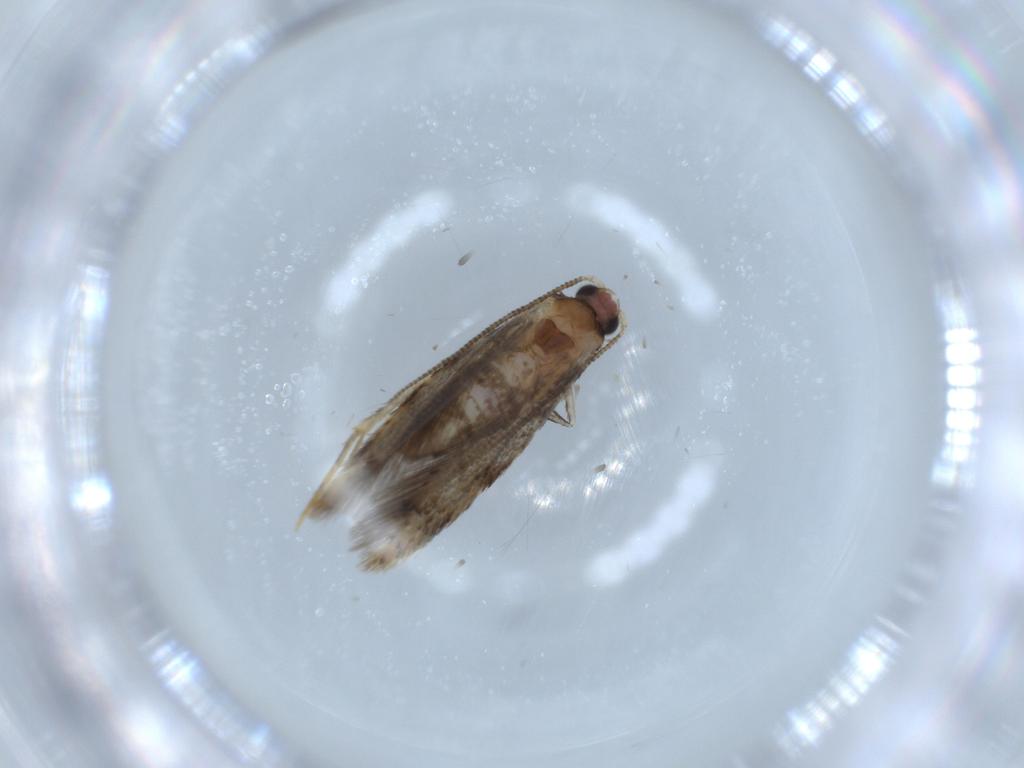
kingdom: Animalia
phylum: Arthropoda
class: Insecta
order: Lepidoptera
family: Tineidae
